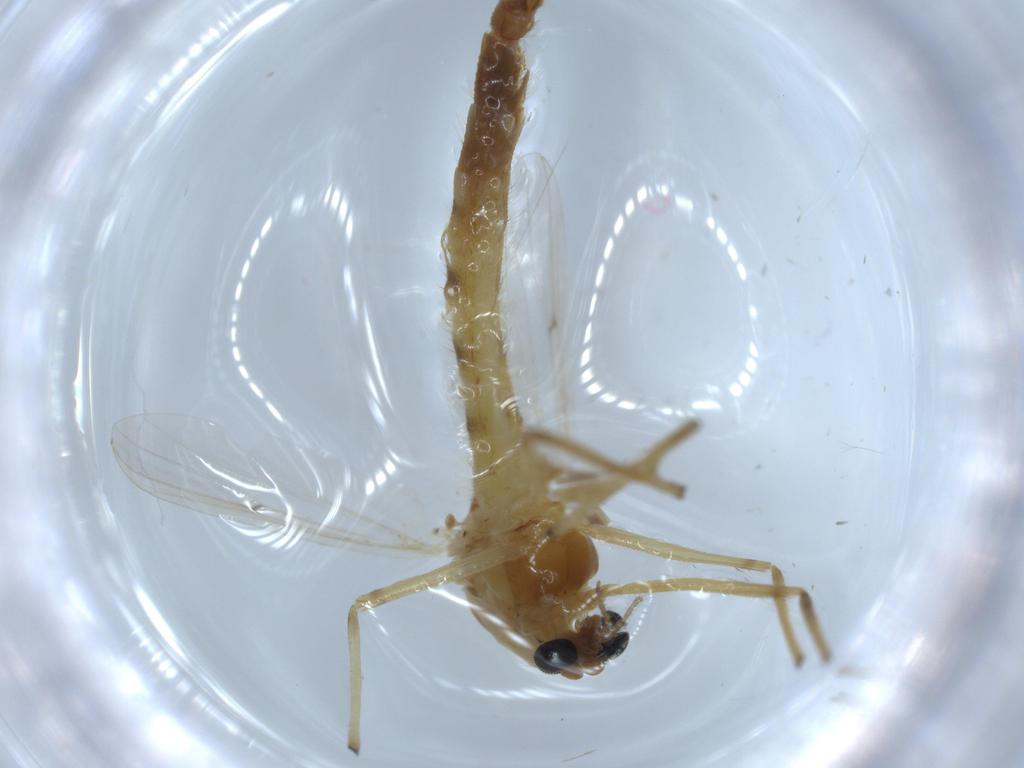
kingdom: Animalia
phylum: Arthropoda
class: Insecta
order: Diptera
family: Ceratopogonidae
